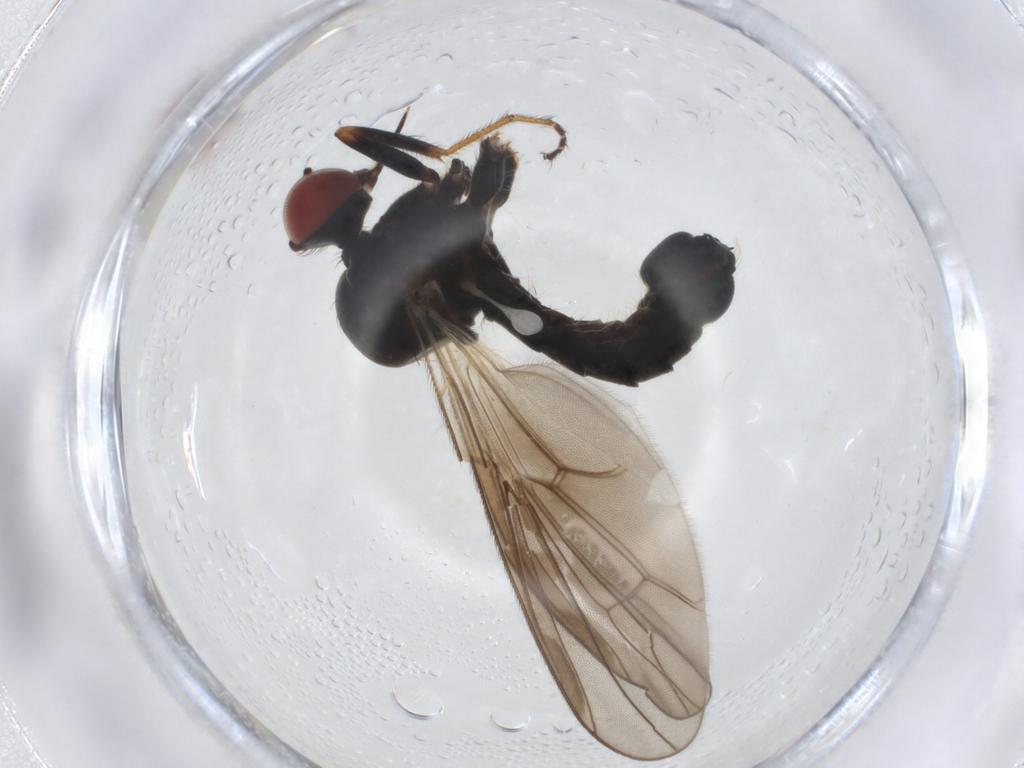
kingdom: Animalia
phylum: Arthropoda
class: Insecta
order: Diptera
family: Hybotidae
